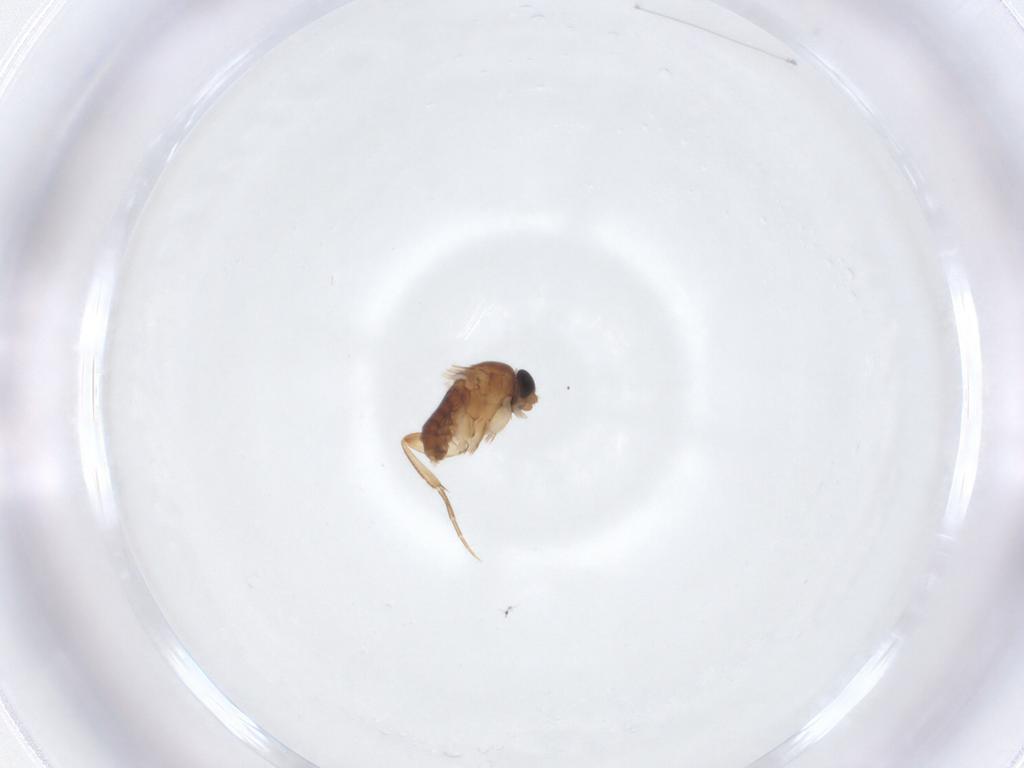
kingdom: Animalia
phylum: Arthropoda
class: Insecta
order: Diptera
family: Phoridae
